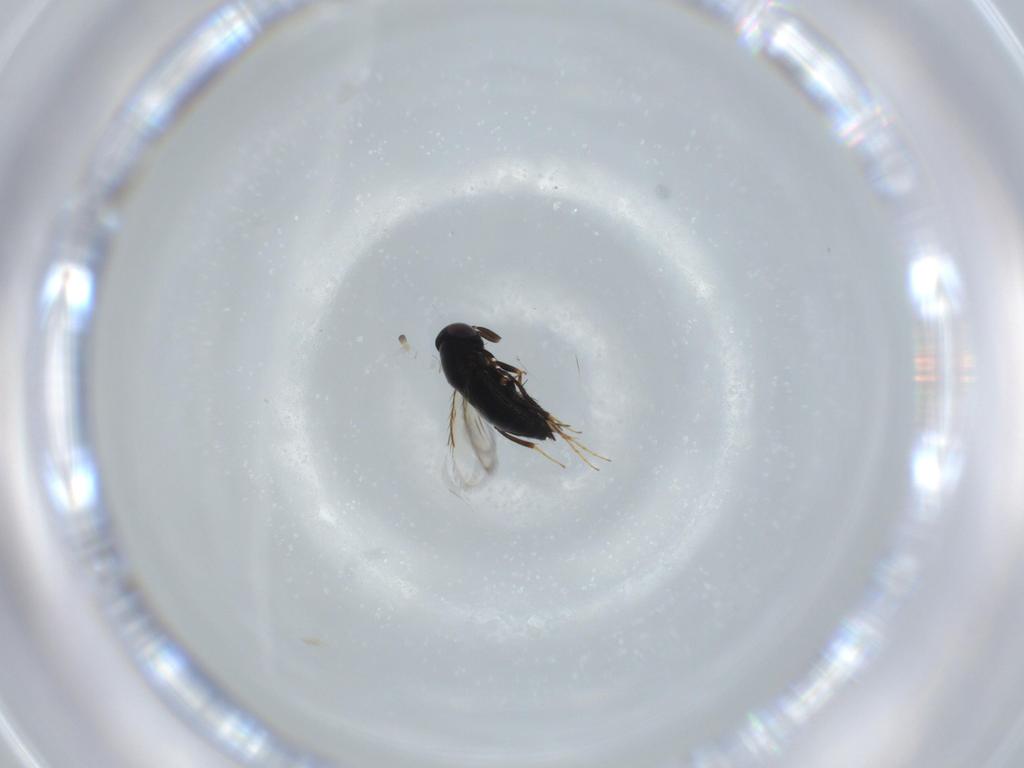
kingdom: Animalia
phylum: Arthropoda
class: Insecta
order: Hymenoptera
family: Signiphoridae
